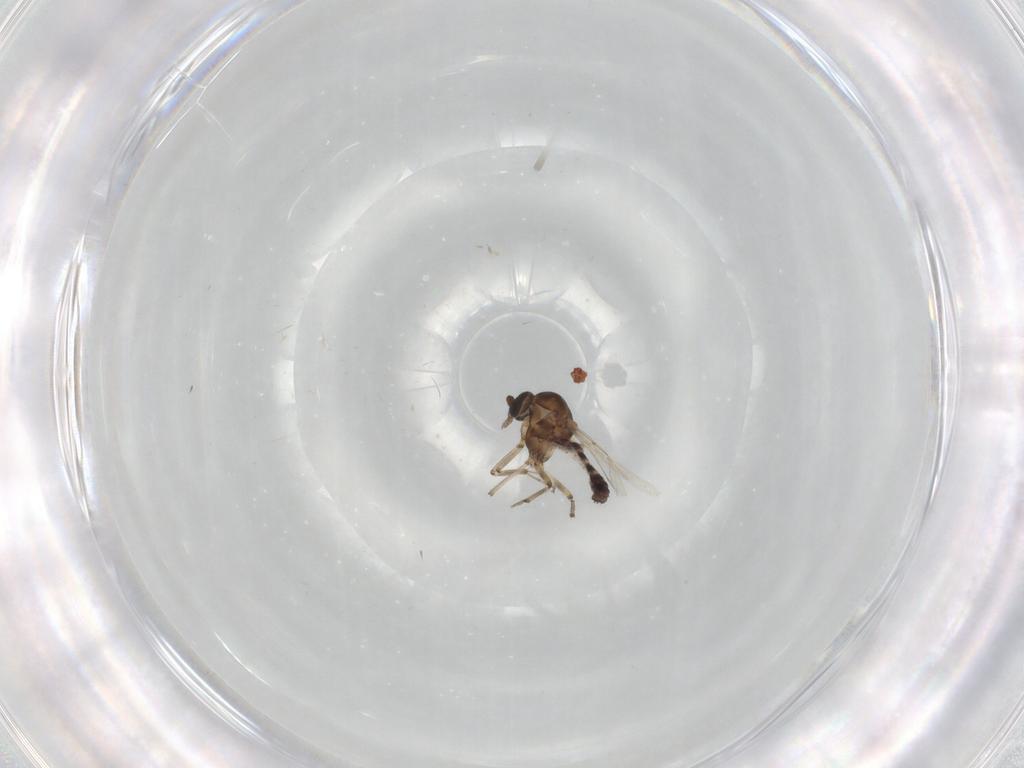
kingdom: Animalia
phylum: Arthropoda
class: Insecta
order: Diptera
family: Ceratopogonidae
